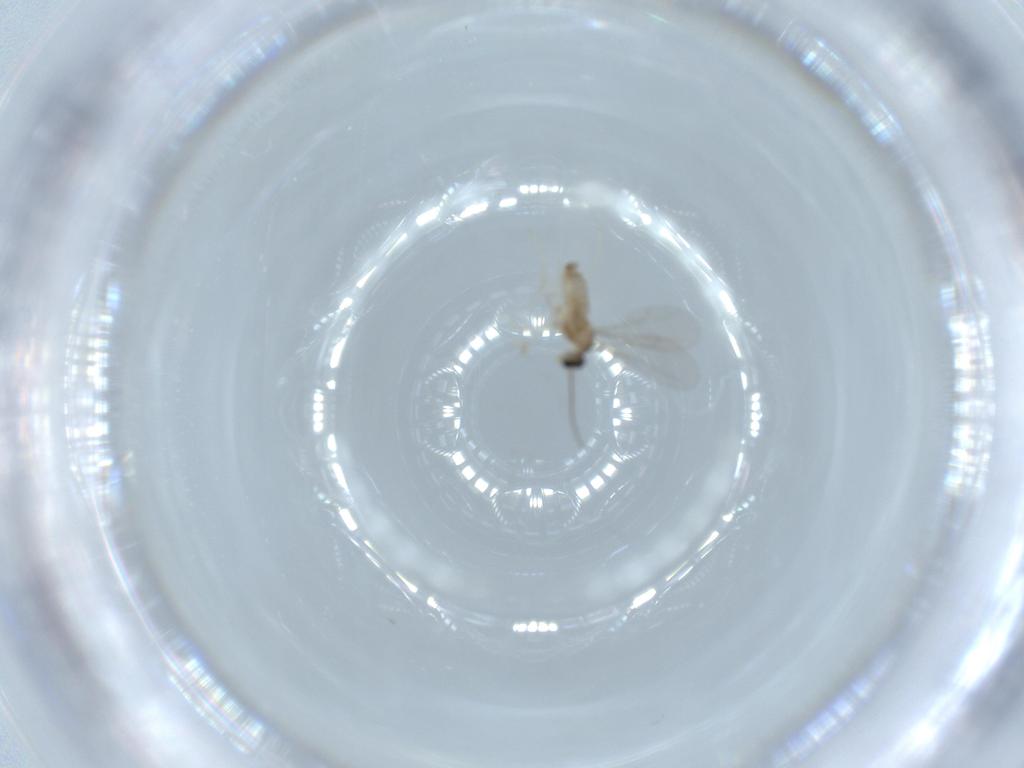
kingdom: Animalia
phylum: Arthropoda
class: Insecta
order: Diptera
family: Cecidomyiidae
